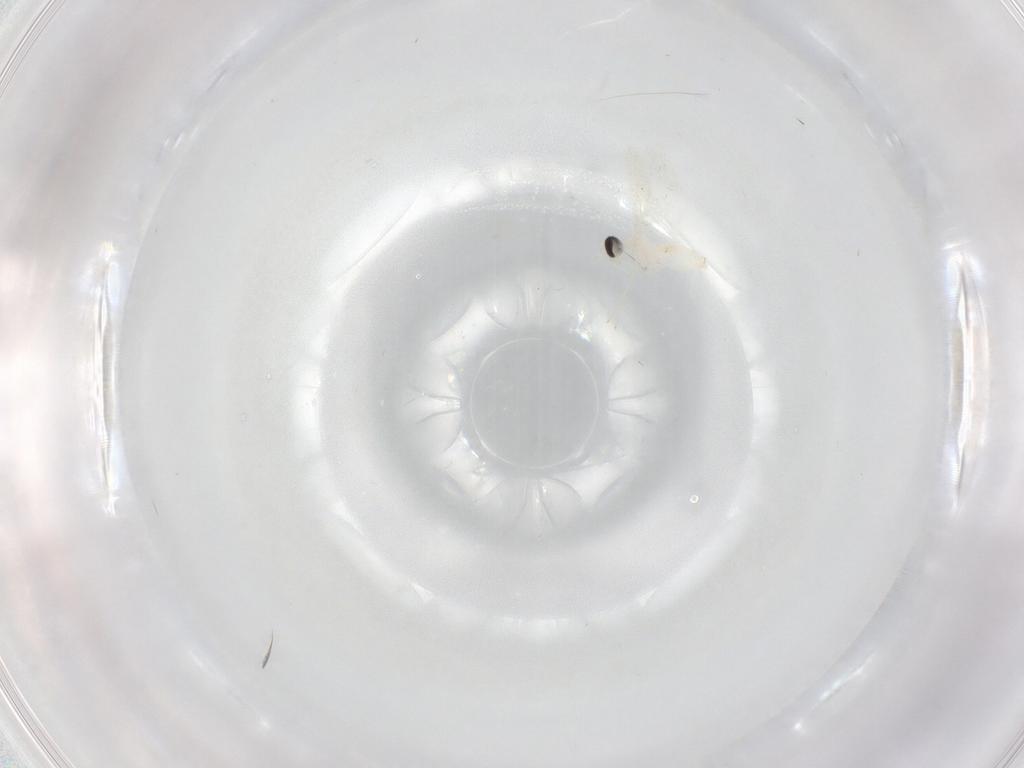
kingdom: Animalia
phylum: Arthropoda
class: Insecta
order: Diptera
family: Cecidomyiidae
